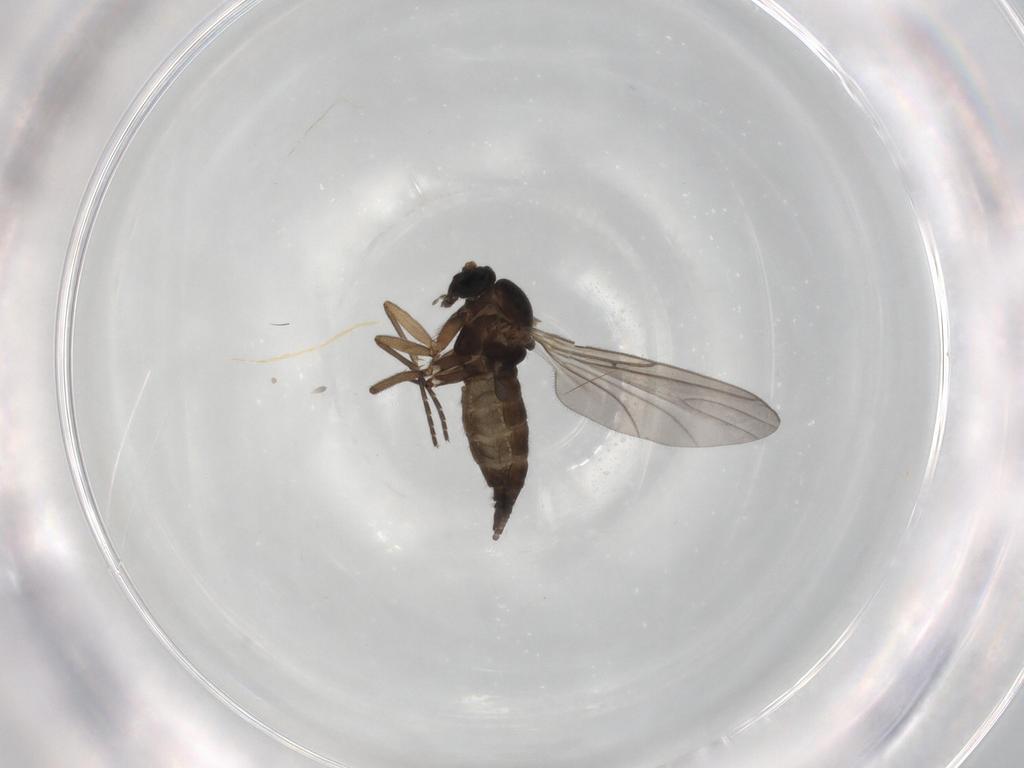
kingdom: Animalia
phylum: Arthropoda
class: Insecta
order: Diptera
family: Sciaridae
